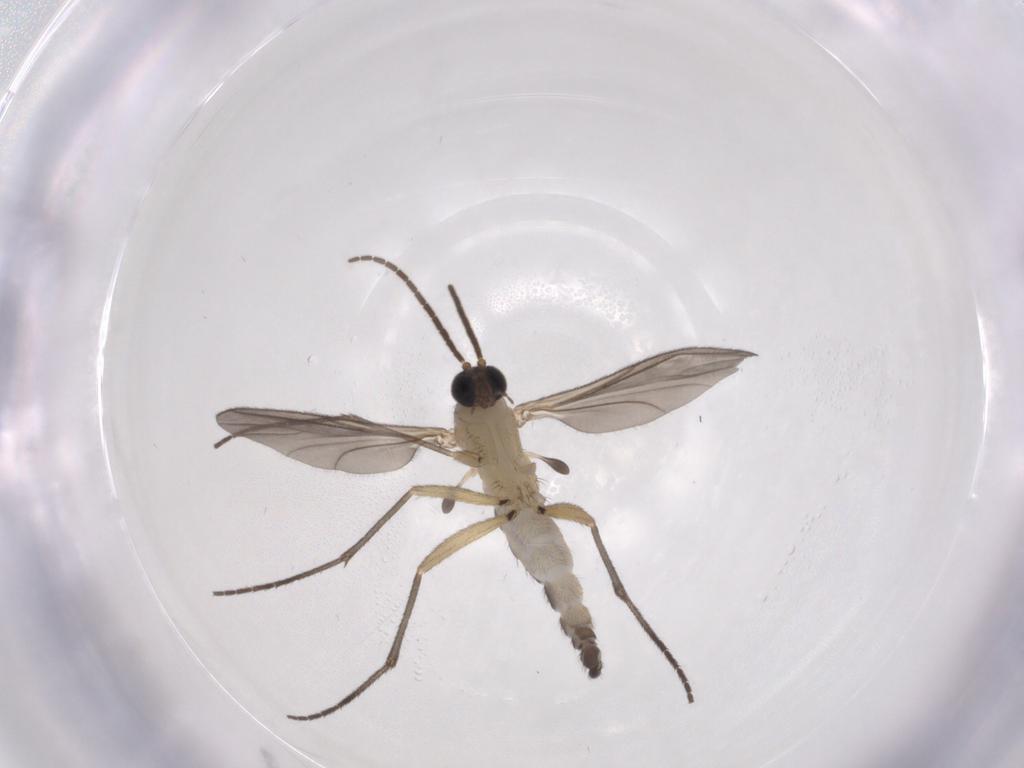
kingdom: Animalia
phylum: Arthropoda
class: Insecta
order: Diptera
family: Sciaridae
